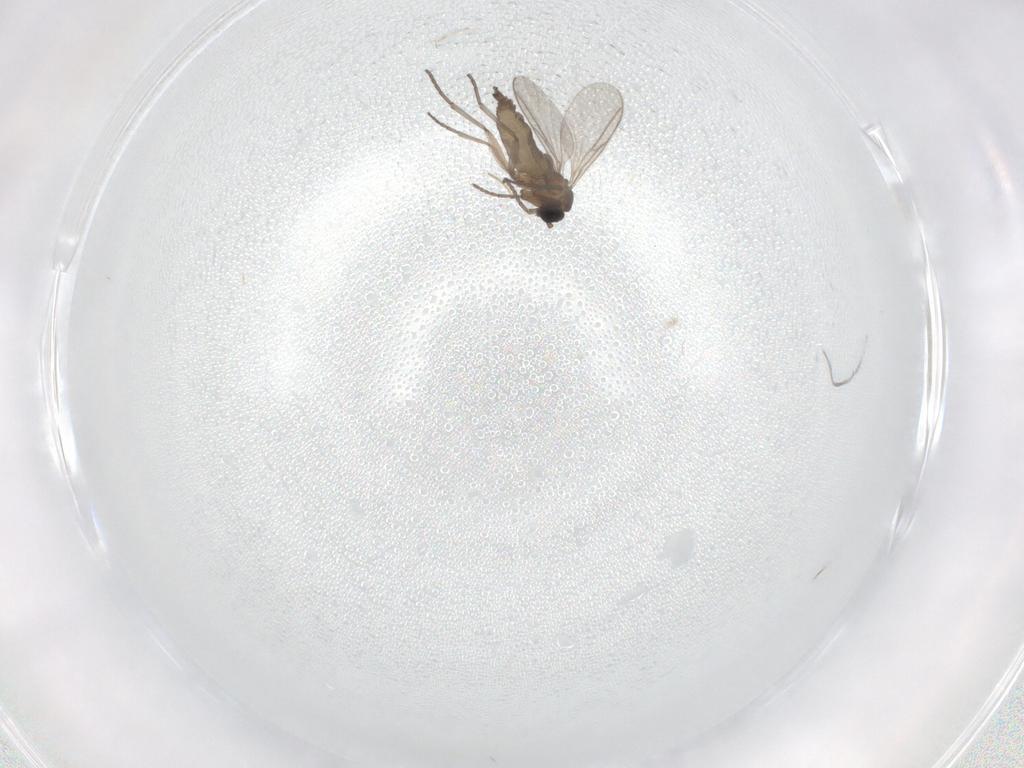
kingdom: Animalia
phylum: Arthropoda
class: Insecta
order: Diptera
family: Chironomidae
